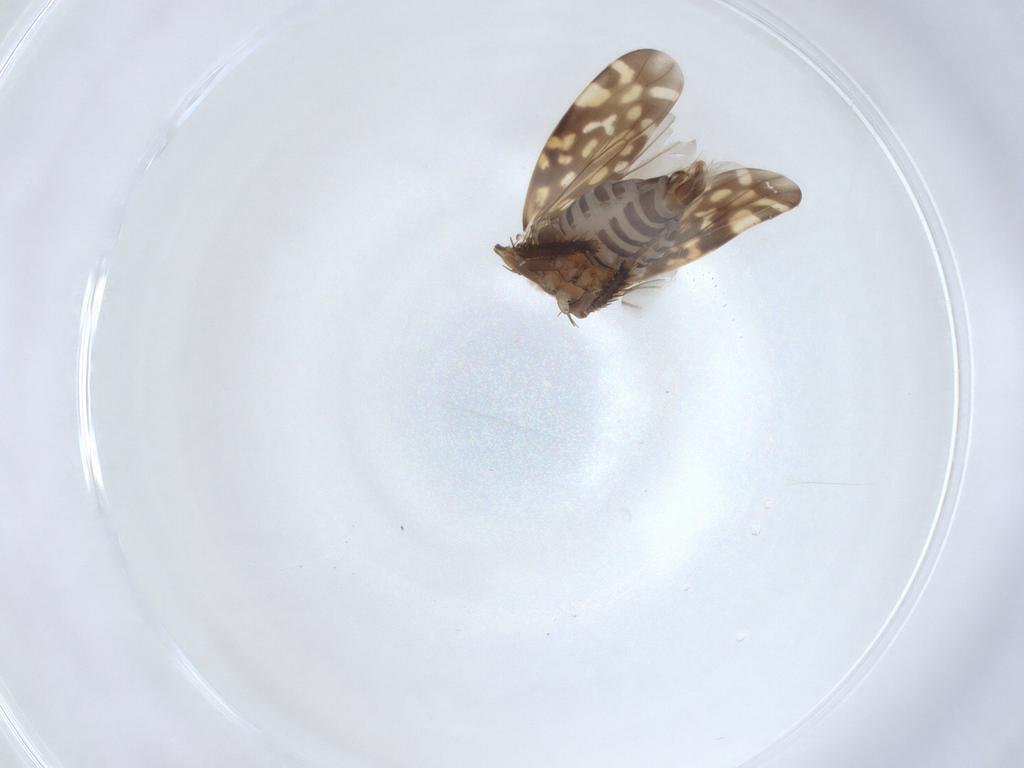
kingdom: Animalia
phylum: Arthropoda
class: Insecta
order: Hemiptera
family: Cicadellidae
